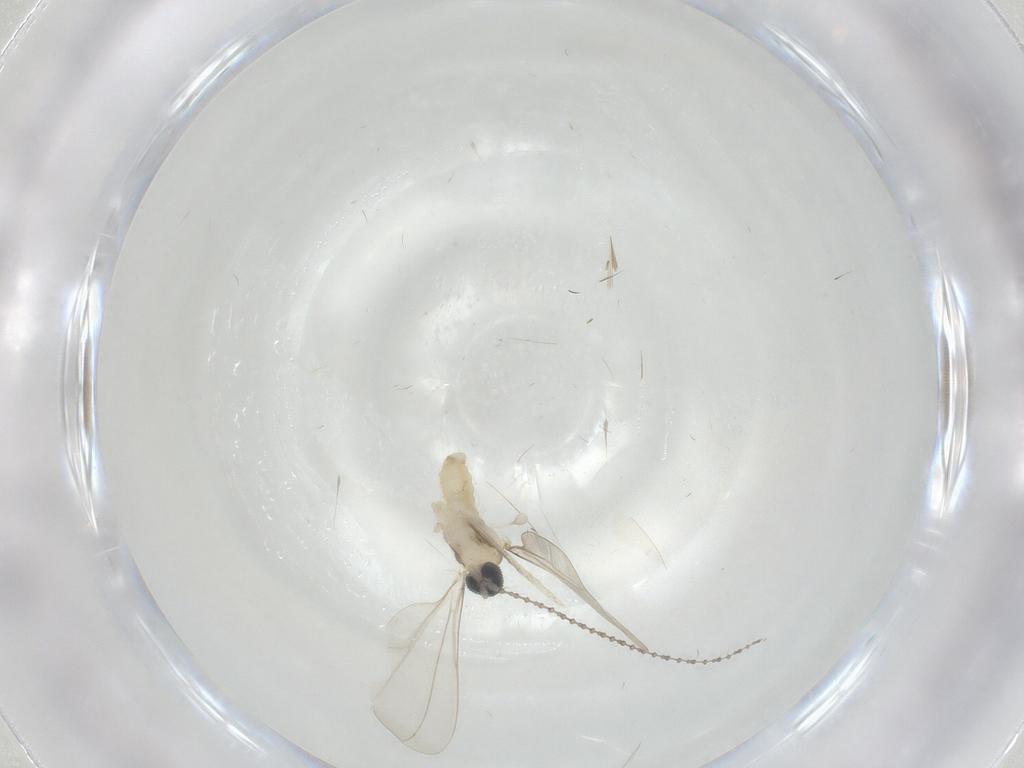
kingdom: Animalia
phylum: Arthropoda
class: Insecta
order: Diptera
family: Cecidomyiidae
